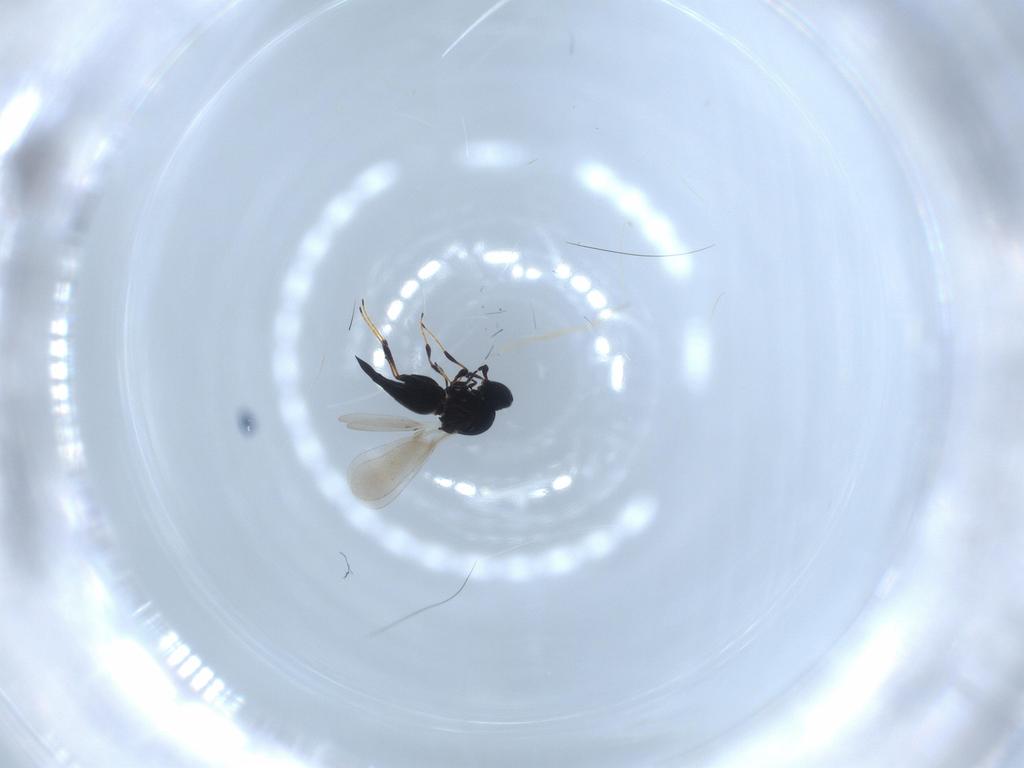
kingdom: Animalia
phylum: Arthropoda
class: Insecta
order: Hymenoptera
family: Platygastridae
